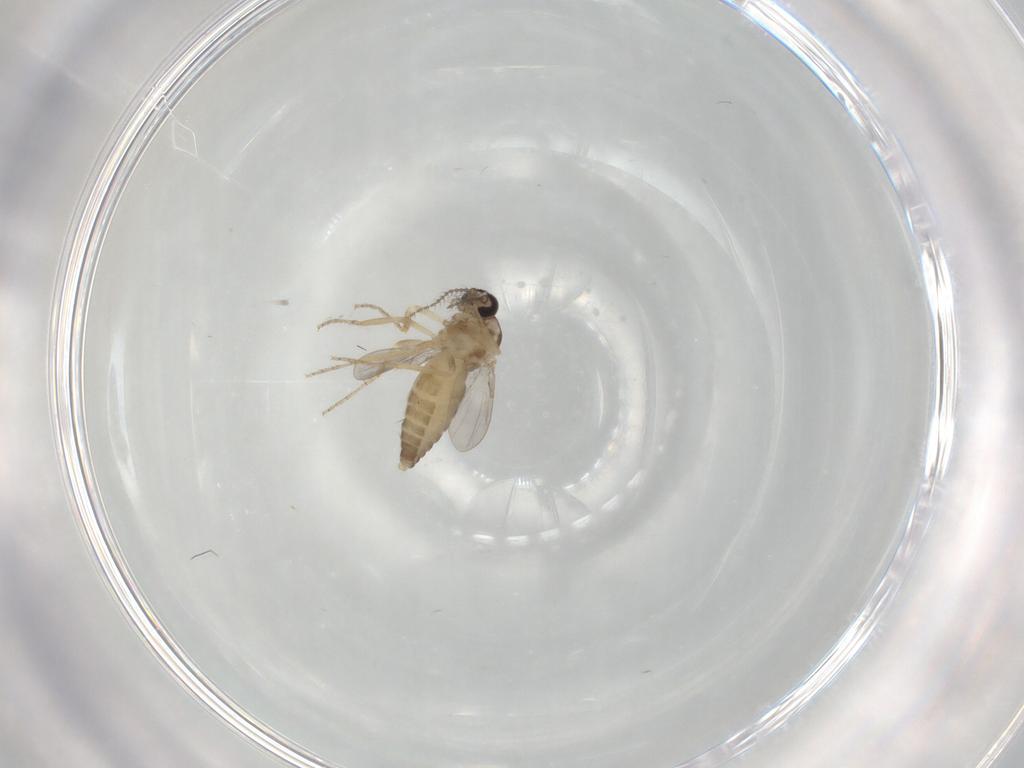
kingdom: Animalia
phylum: Arthropoda
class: Insecta
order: Diptera
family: Ceratopogonidae
